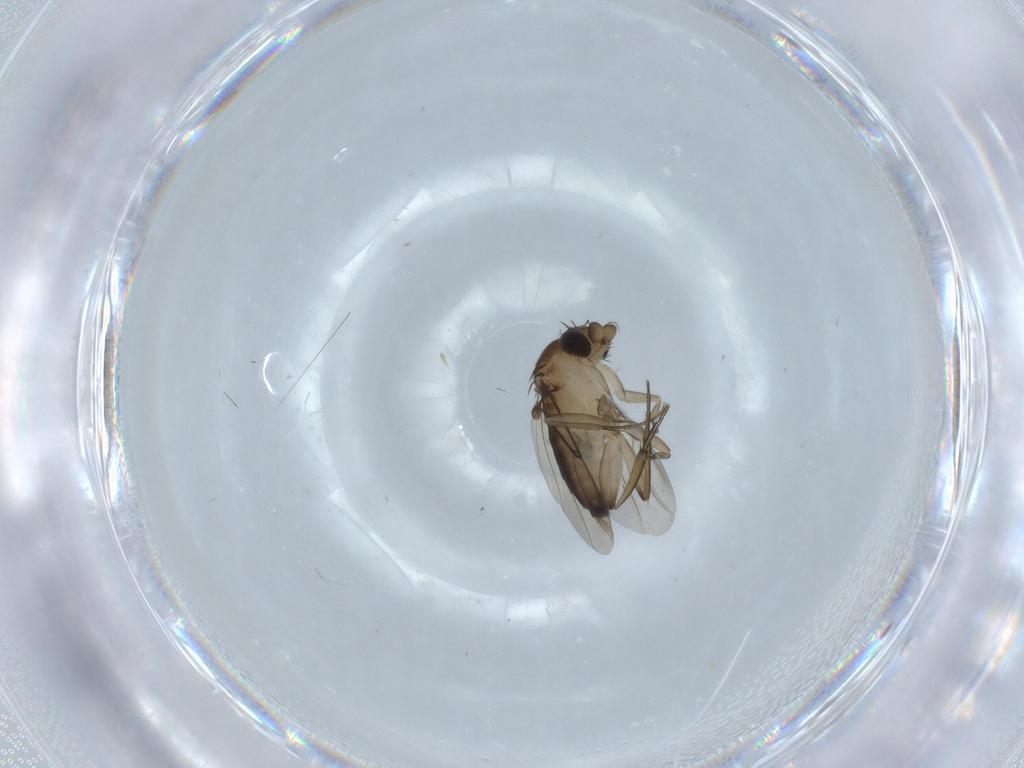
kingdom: Animalia
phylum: Arthropoda
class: Insecta
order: Diptera
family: Phoridae
